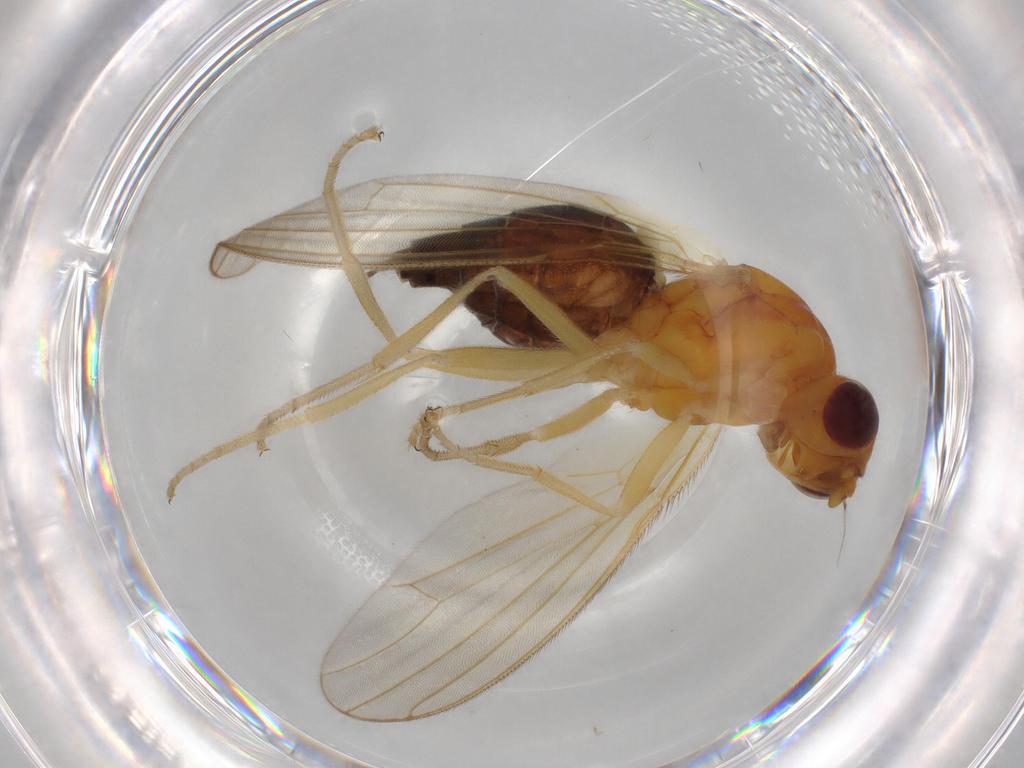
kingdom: Animalia
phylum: Arthropoda
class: Insecta
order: Diptera
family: Psilidae
